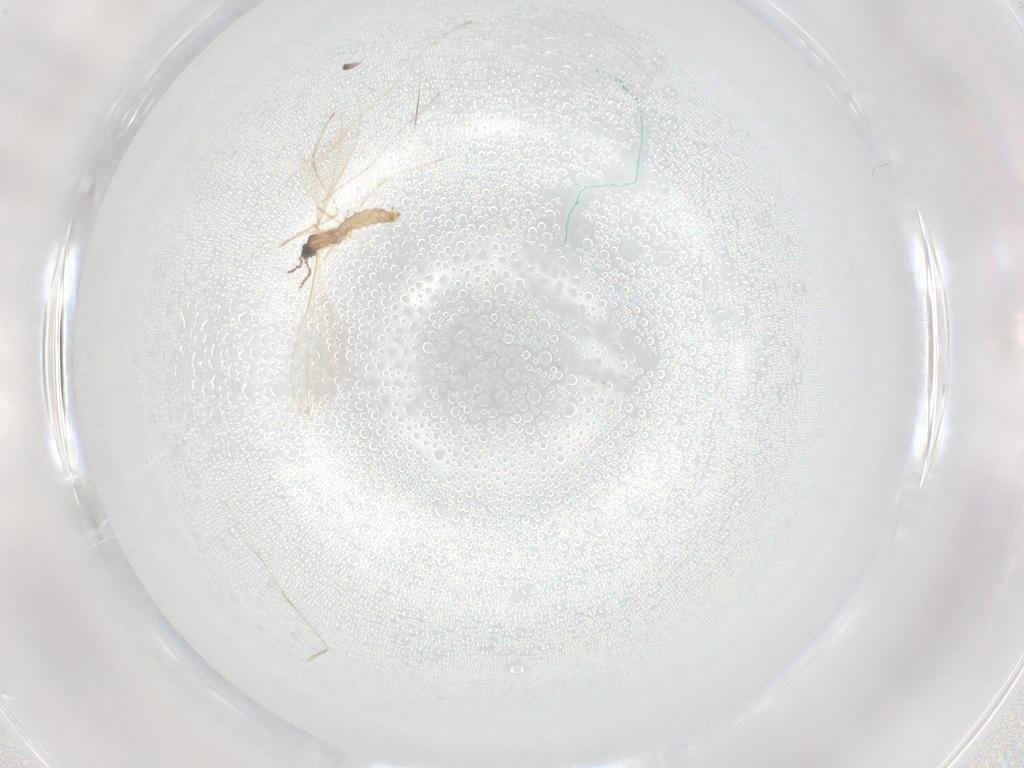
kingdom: Animalia
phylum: Arthropoda
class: Insecta
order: Diptera
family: Cecidomyiidae
